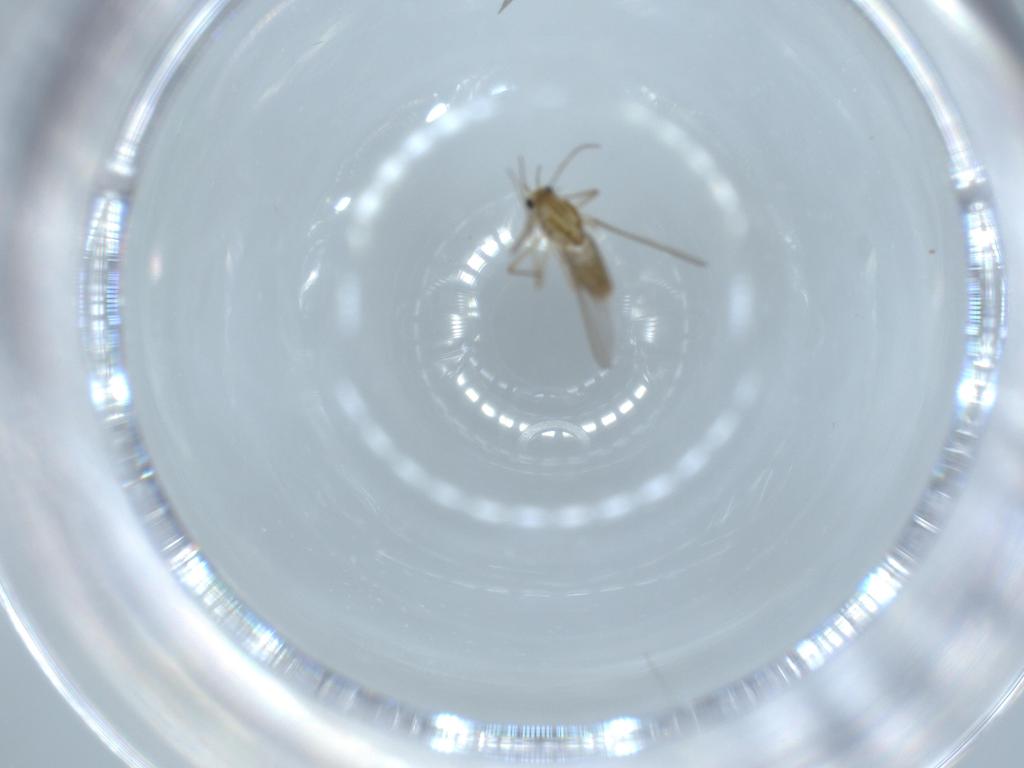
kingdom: Animalia
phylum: Arthropoda
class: Insecta
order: Diptera
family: Chironomidae
